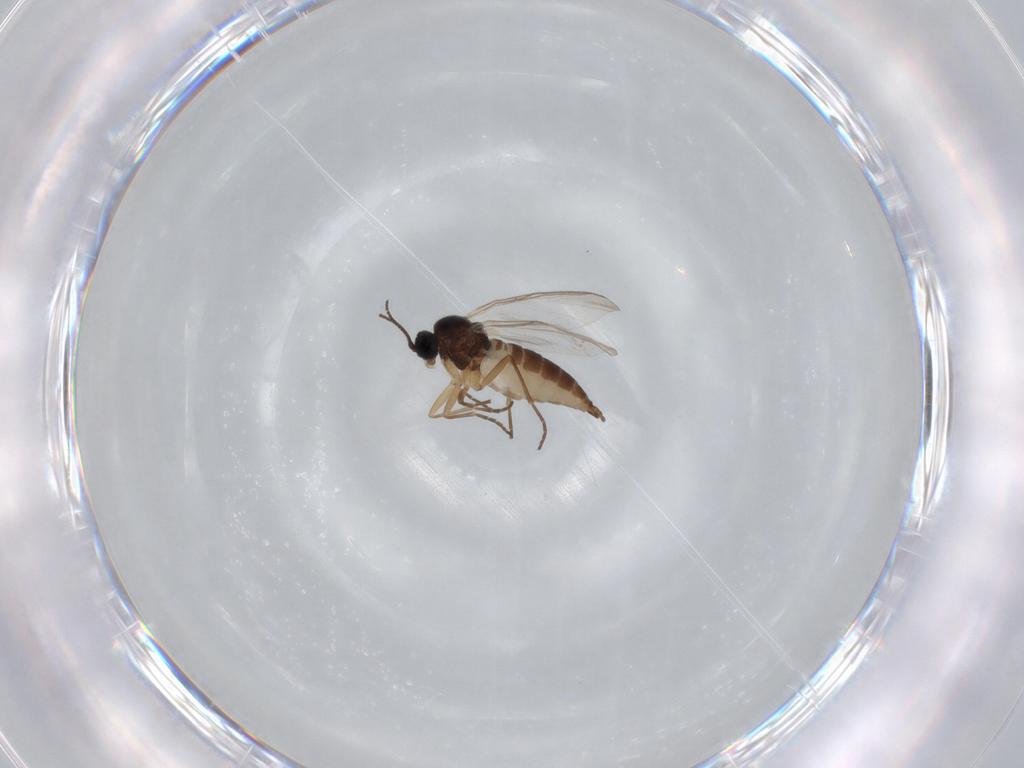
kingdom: Animalia
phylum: Arthropoda
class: Insecta
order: Diptera
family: Sciaridae
